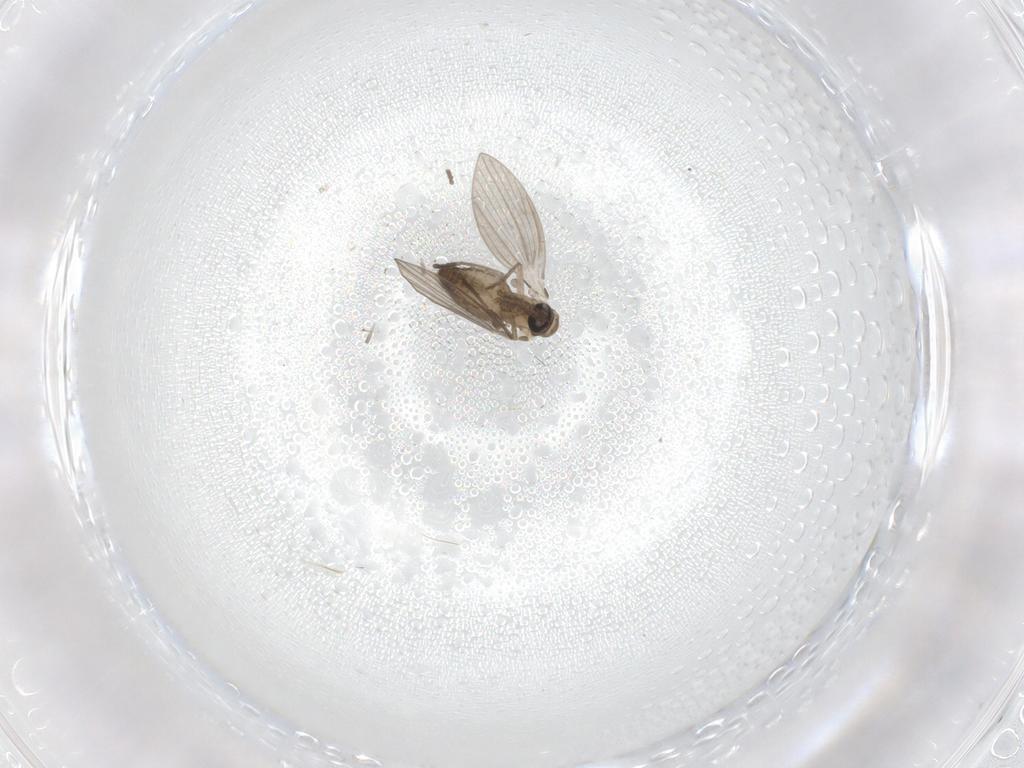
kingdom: Animalia
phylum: Arthropoda
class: Insecta
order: Diptera
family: Psychodidae
